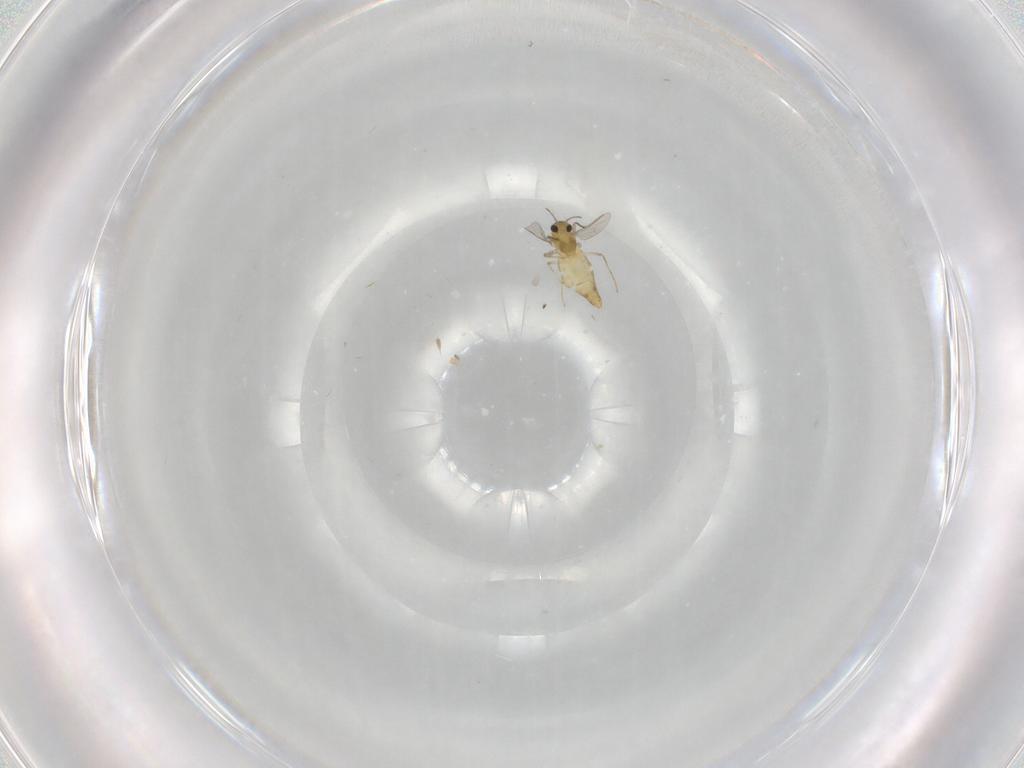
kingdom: Animalia
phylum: Arthropoda
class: Insecta
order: Diptera
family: Chironomidae
